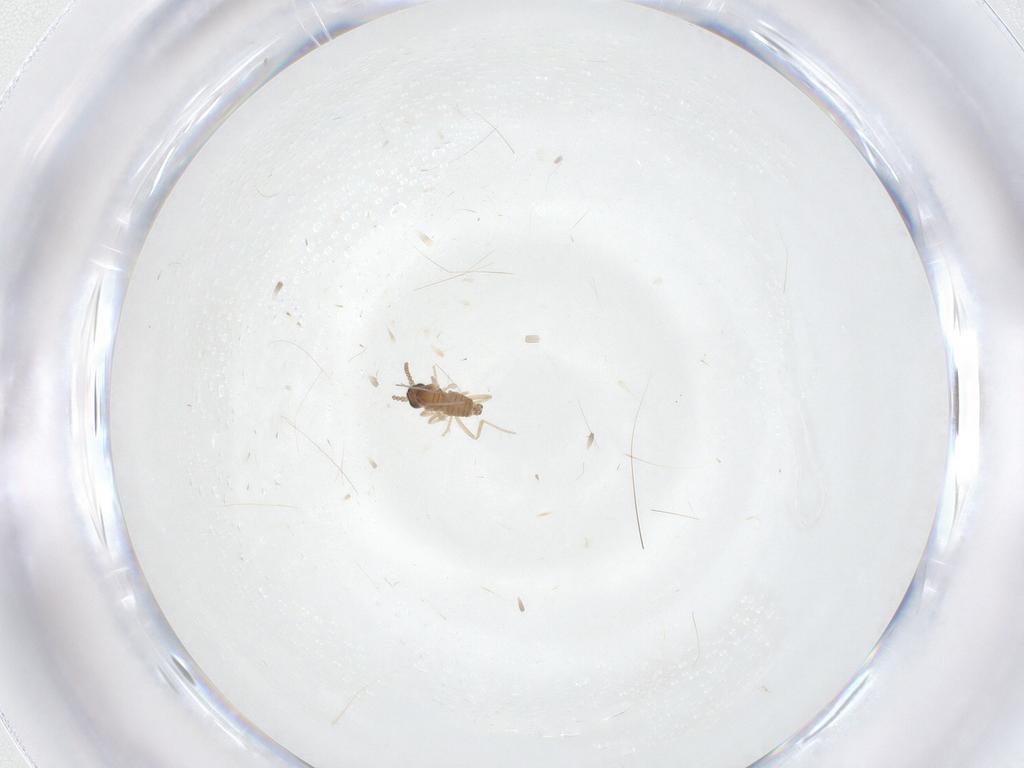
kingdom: Animalia
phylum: Arthropoda
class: Insecta
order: Diptera
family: Cecidomyiidae
